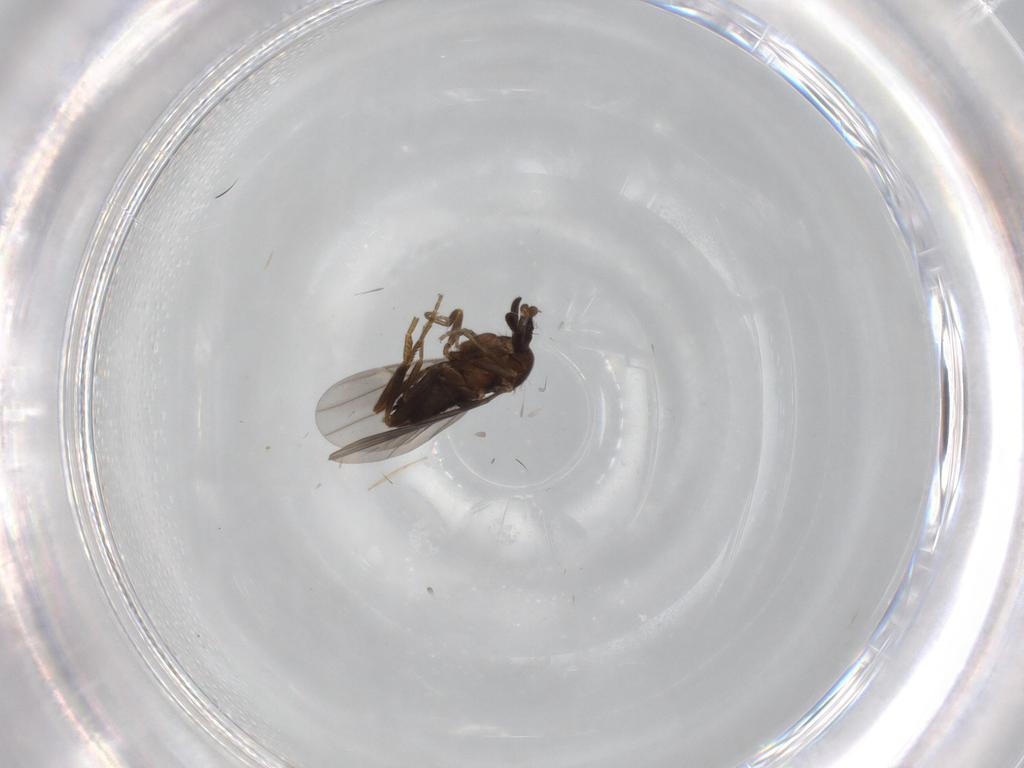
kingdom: Animalia
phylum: Arthropoda
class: Insecta
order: Diptera
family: Phoridae
